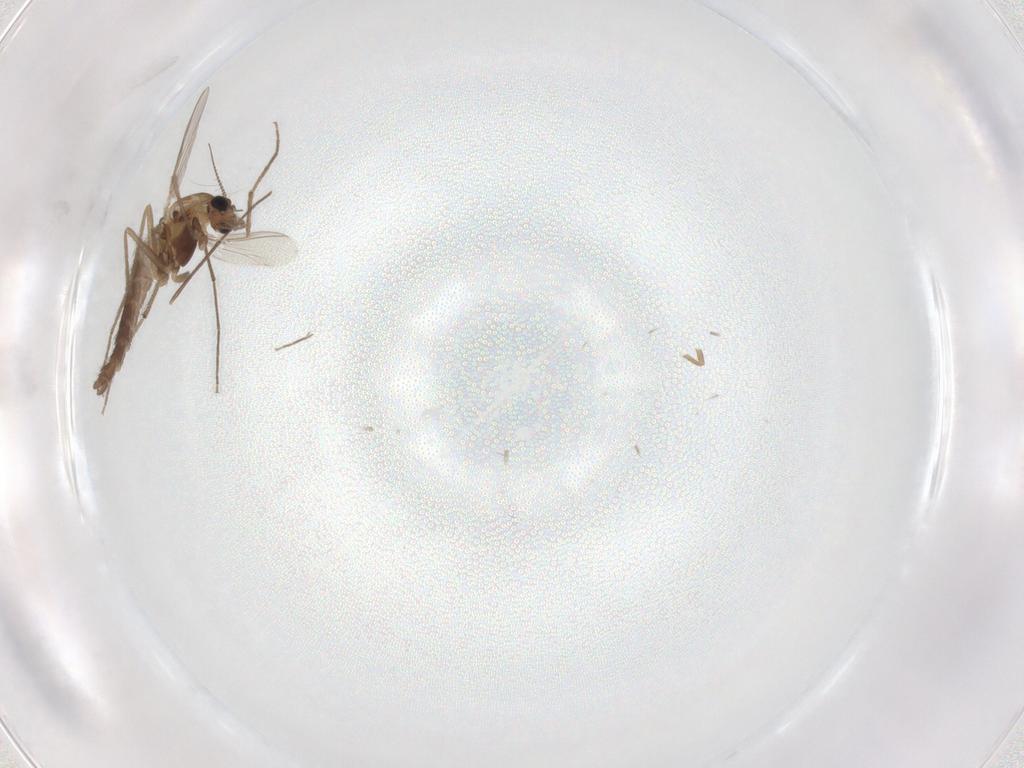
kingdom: Animalia
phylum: Arthropoda
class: Insecta
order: Diptera
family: Chironomidae
